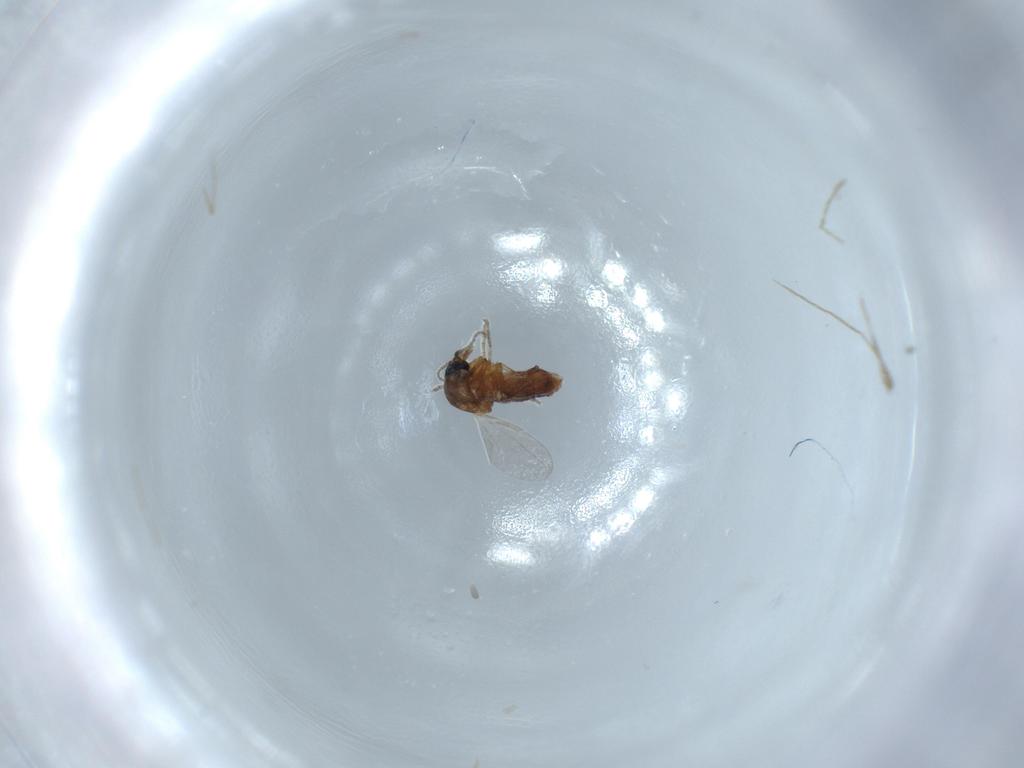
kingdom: Animalia
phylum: Arthropoda
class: Insecta
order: Diptera
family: Ceratopogonidae
